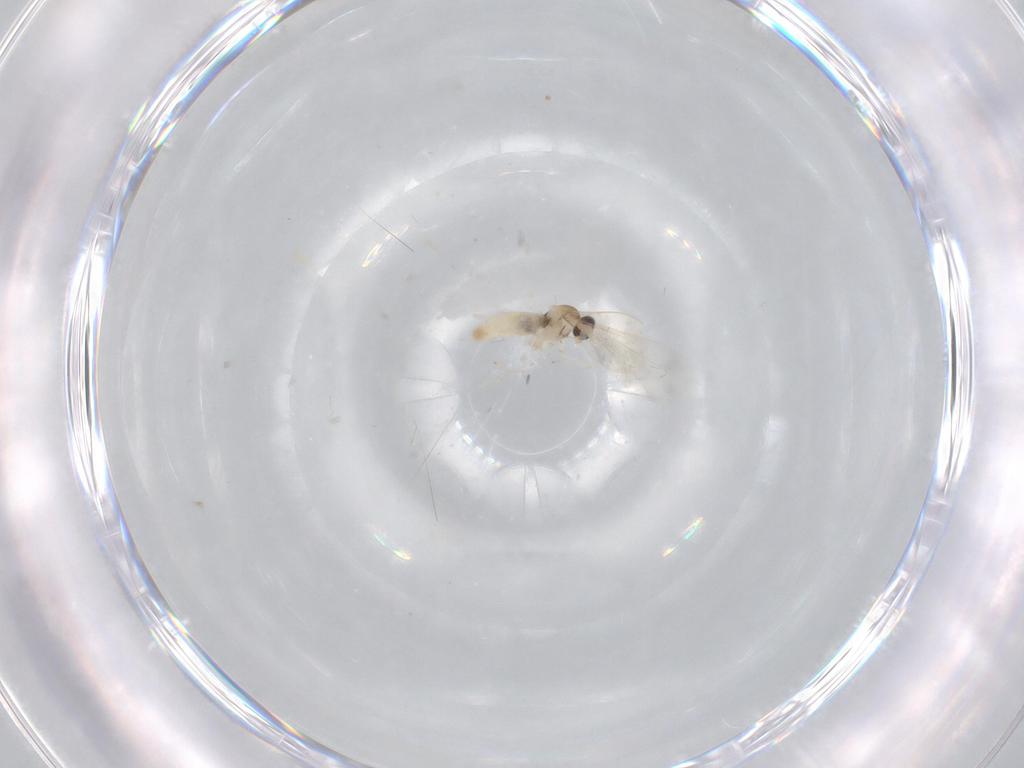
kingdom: Animalia
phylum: Arthropoda
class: Insecta
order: Diptera
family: Cecidomyiidae
